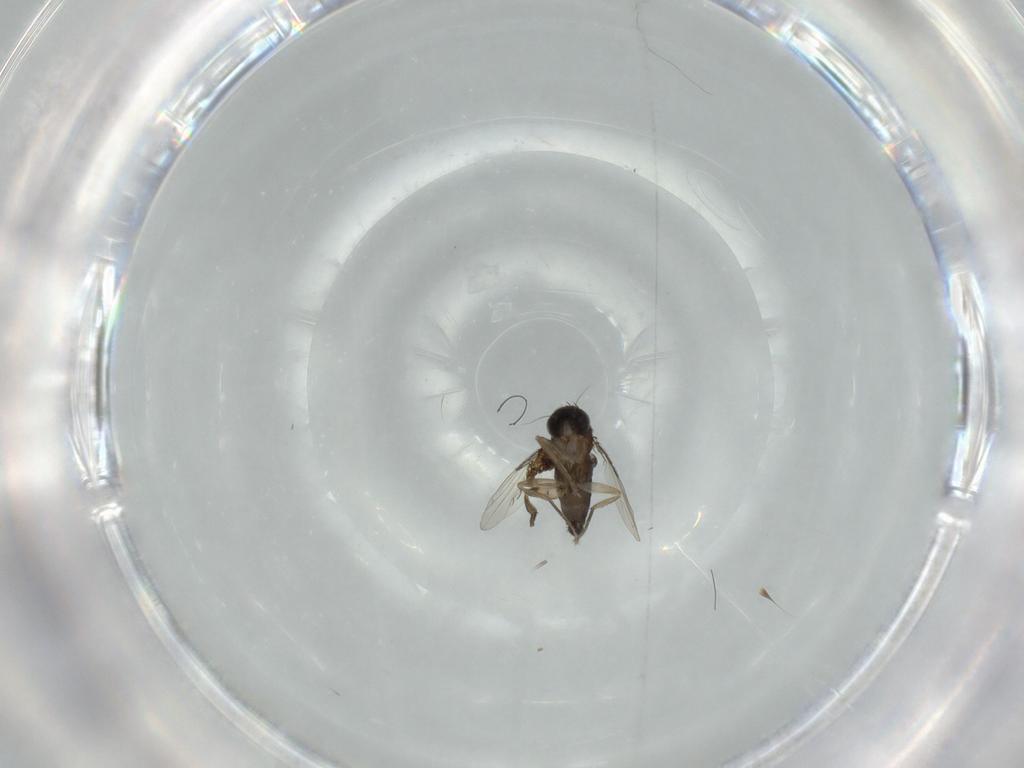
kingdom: Animalia
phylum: Arthropoda
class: Insecta
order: Diptera
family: Phoridae
